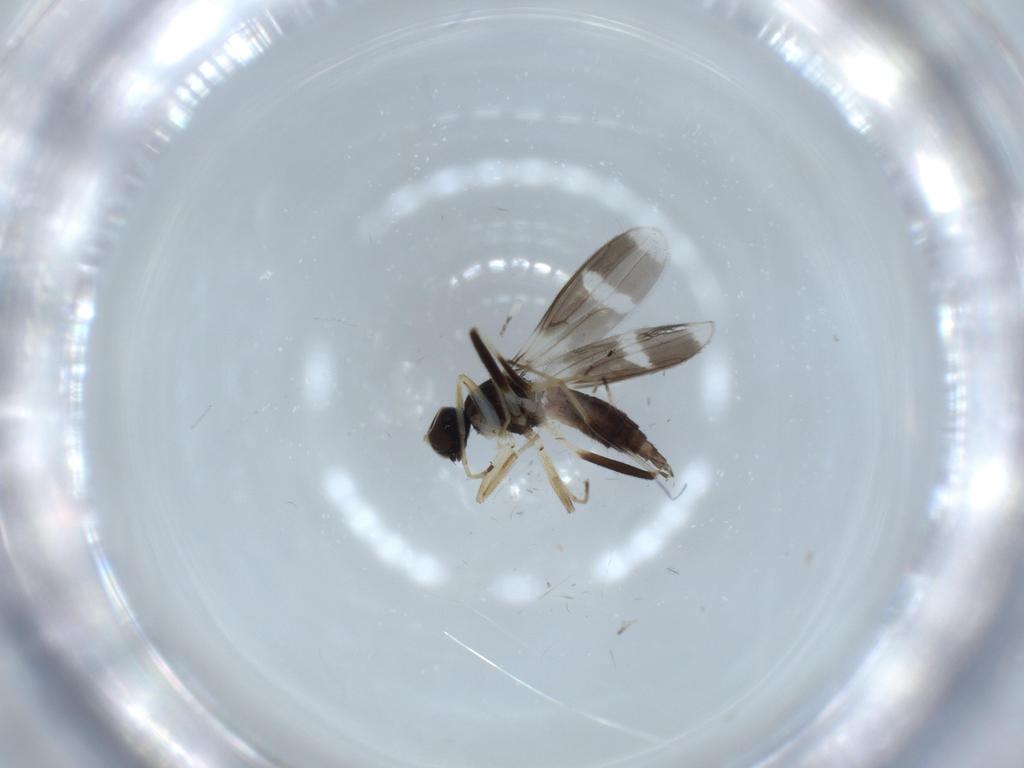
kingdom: Animalia
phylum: Arthropoda
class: Insecta
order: Diptera
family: Hybotidae
